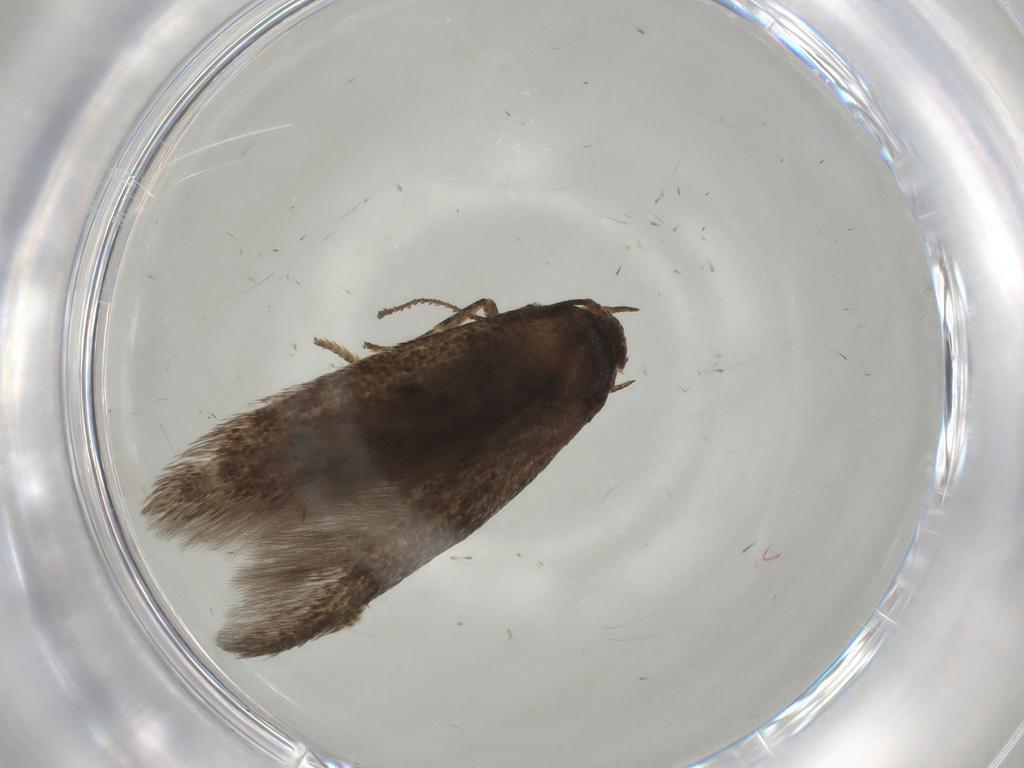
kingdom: Animalia
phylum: Arthropoda
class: Insecta
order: Lepidoptera
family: Blastobasidae
